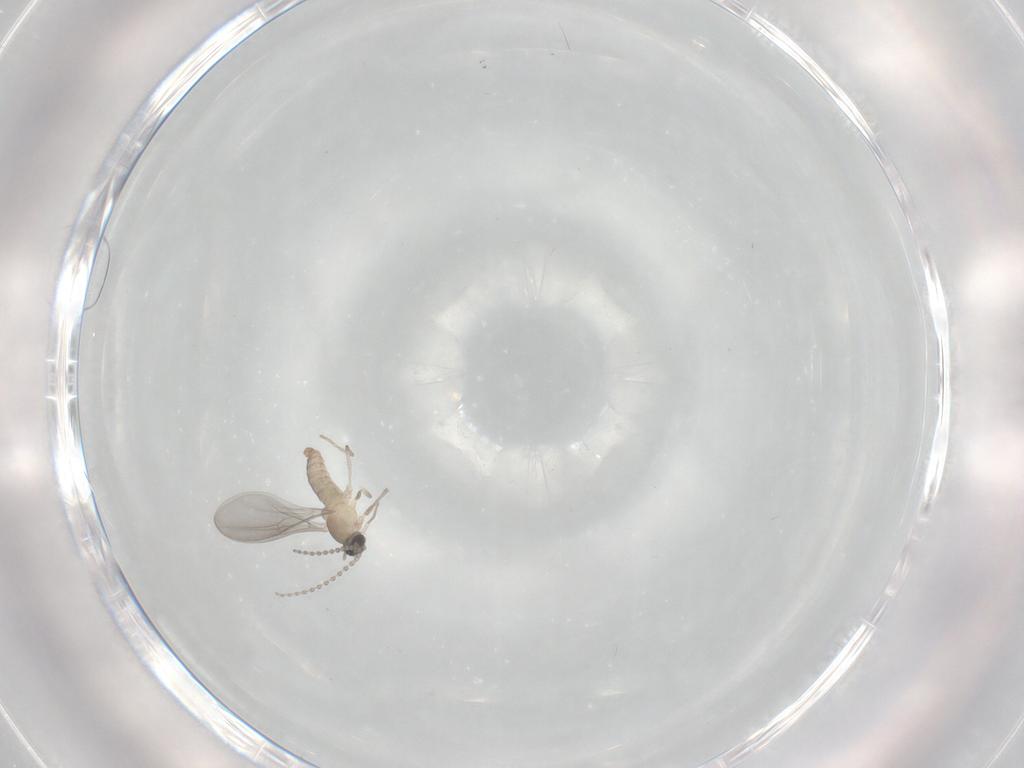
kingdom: Animalia
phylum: Arthropoda
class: Insecta
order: Diptera
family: Cecidomyiidae
